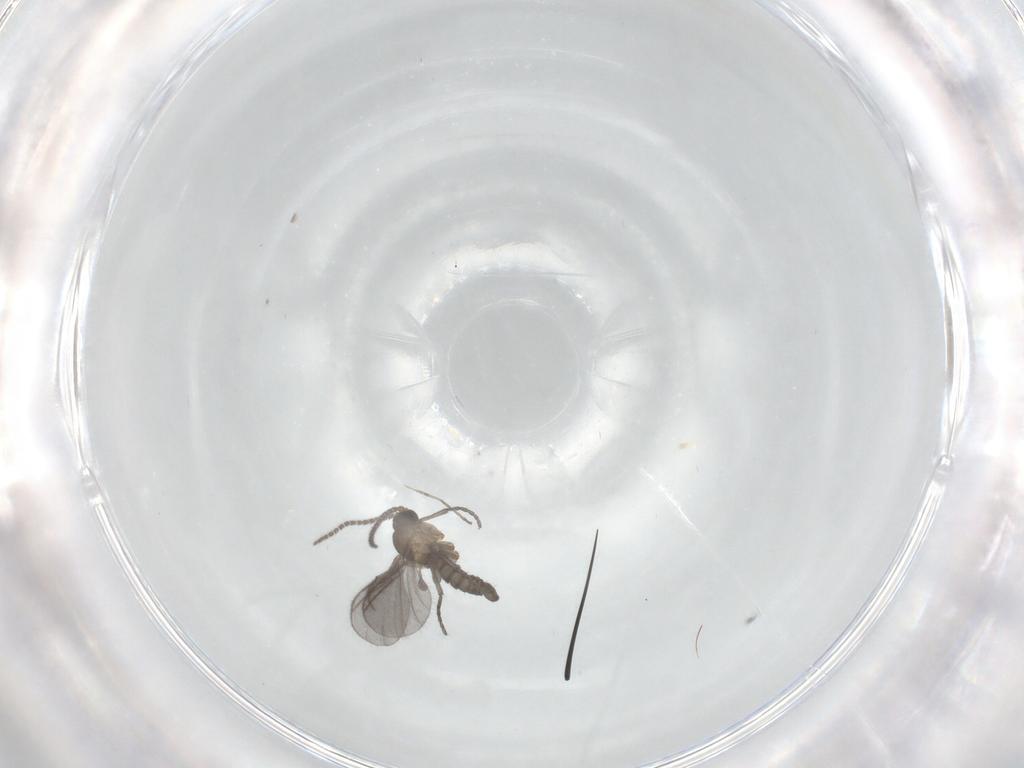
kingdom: Animalia
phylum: Arthropoda
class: Insecta
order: Diptera
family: Sciaridae
